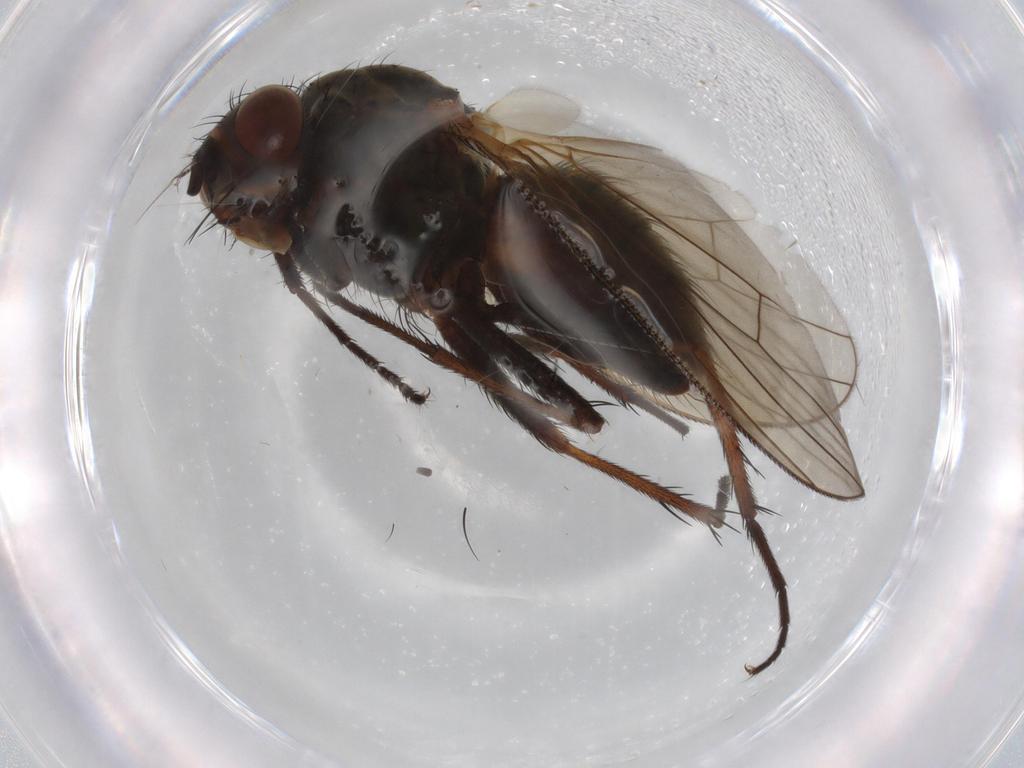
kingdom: Animalia
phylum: Arthropoda
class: Insecta
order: Diptera
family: Anthomyiidae
